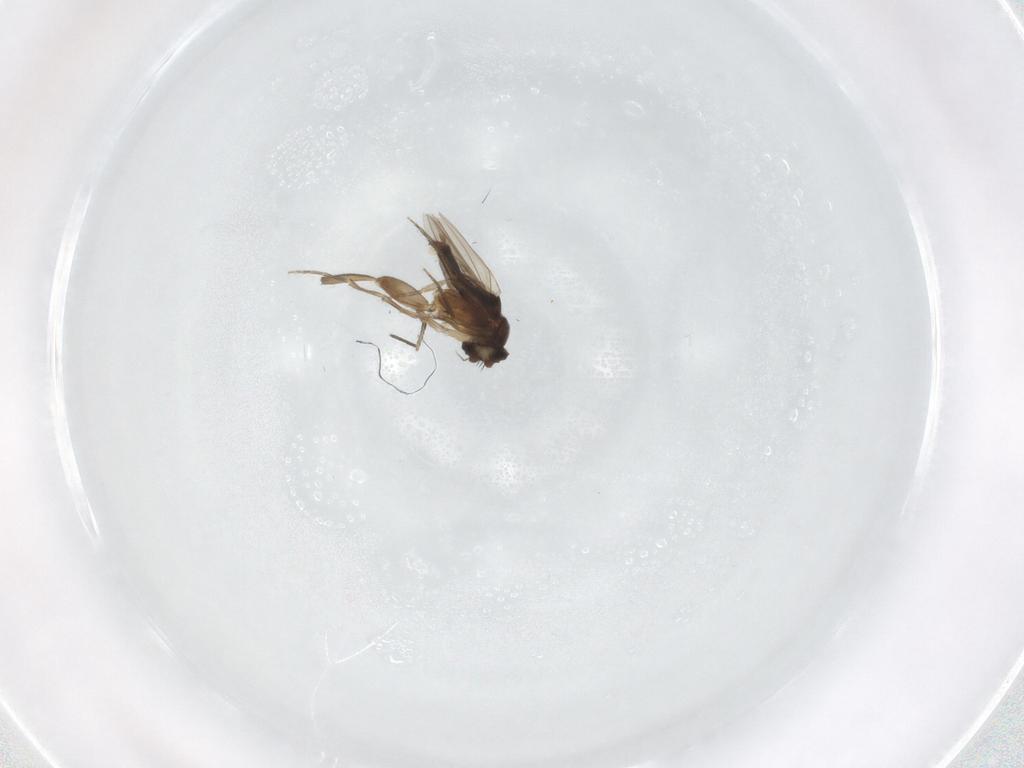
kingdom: Animalia
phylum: Arthropoda
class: Insecta
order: Diptera
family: Phoridae
